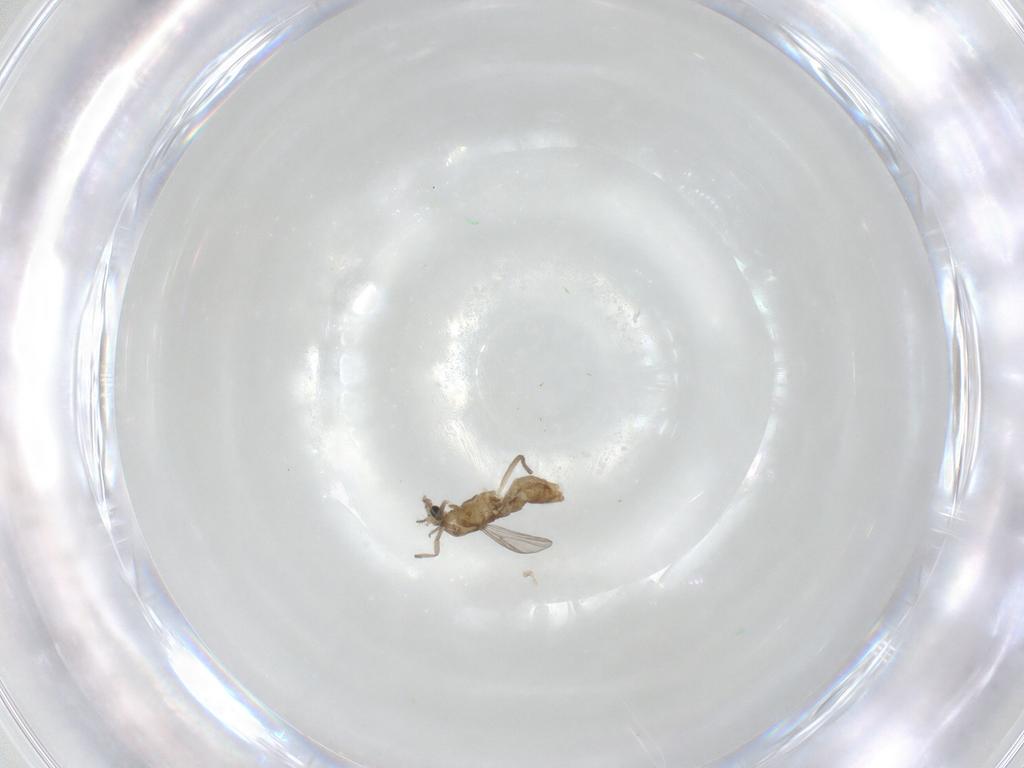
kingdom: Animalia
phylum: Arthropoda
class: Insecta
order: Diptera
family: Chironomidae
